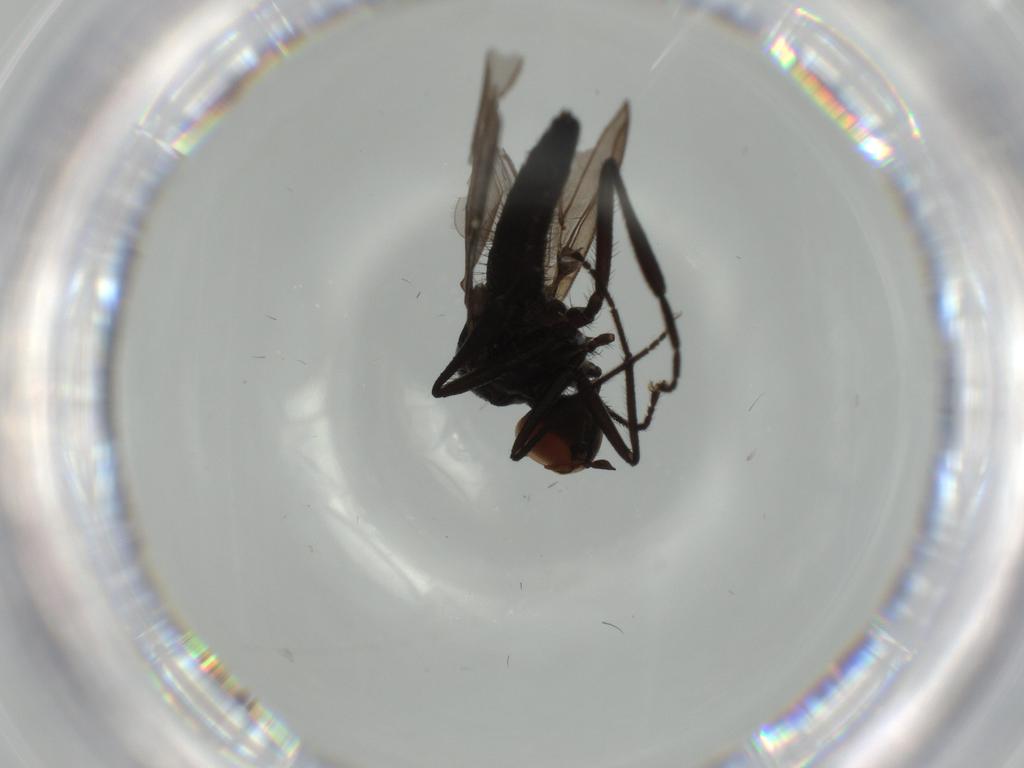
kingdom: Animalia
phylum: Arthropoda
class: Insecta
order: Diptera
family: Hybotidae
